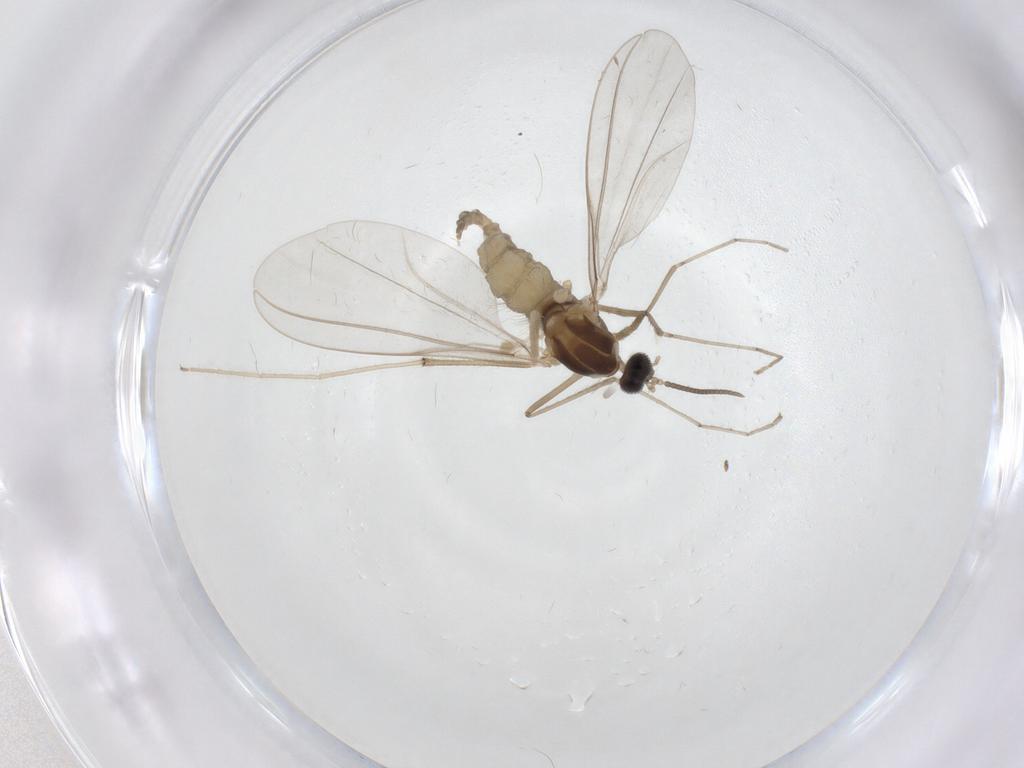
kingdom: Animalia
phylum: Arthropoda
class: Insecta
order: Diptera
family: Cecidomyiidae
